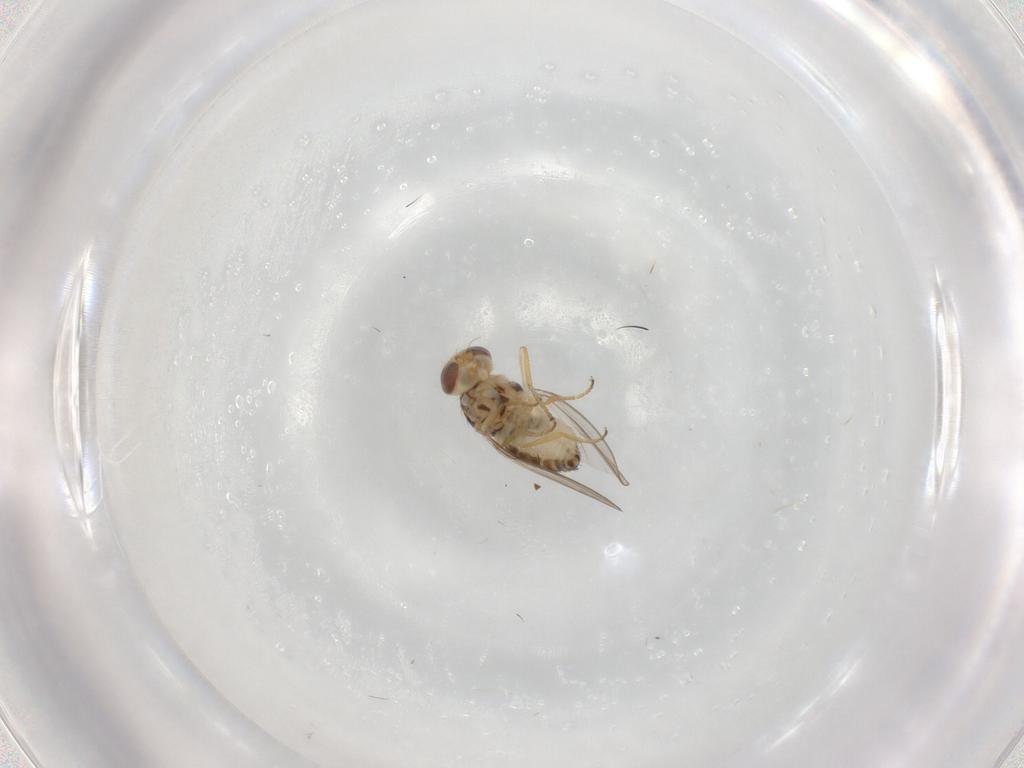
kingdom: Animalia
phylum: Arthropoda
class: Insecta
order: Diptera
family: Chyromyidae
